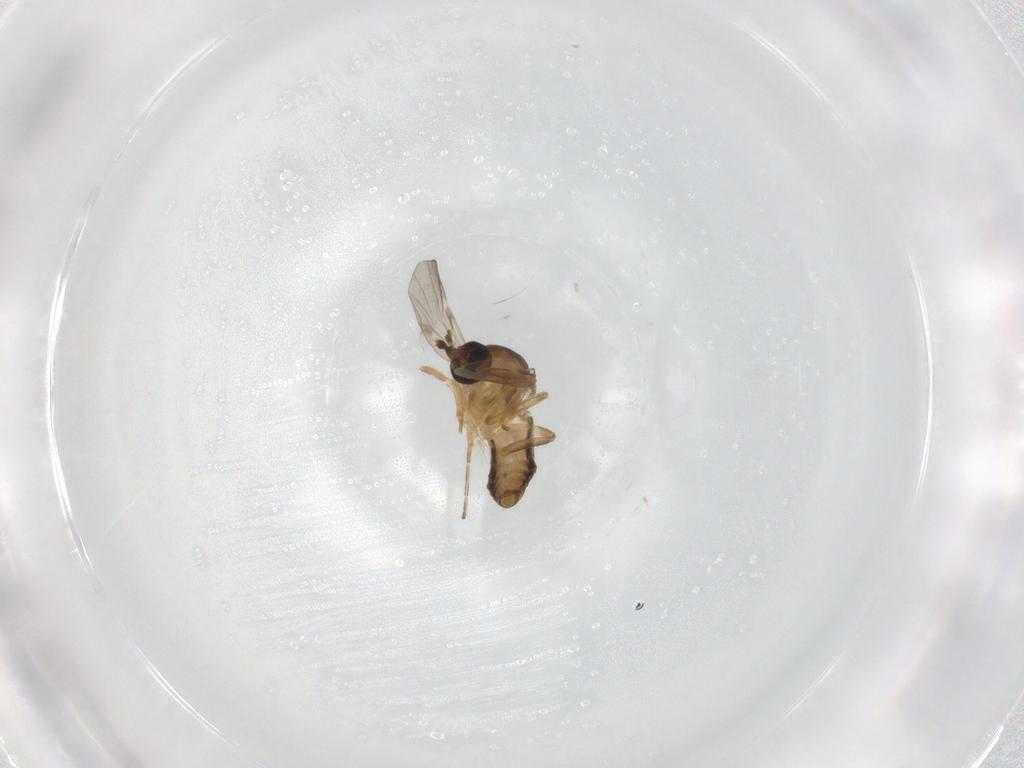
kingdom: Animalia
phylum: Arthropoda
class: Insecta
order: Diptera
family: Ceratopogonidae
